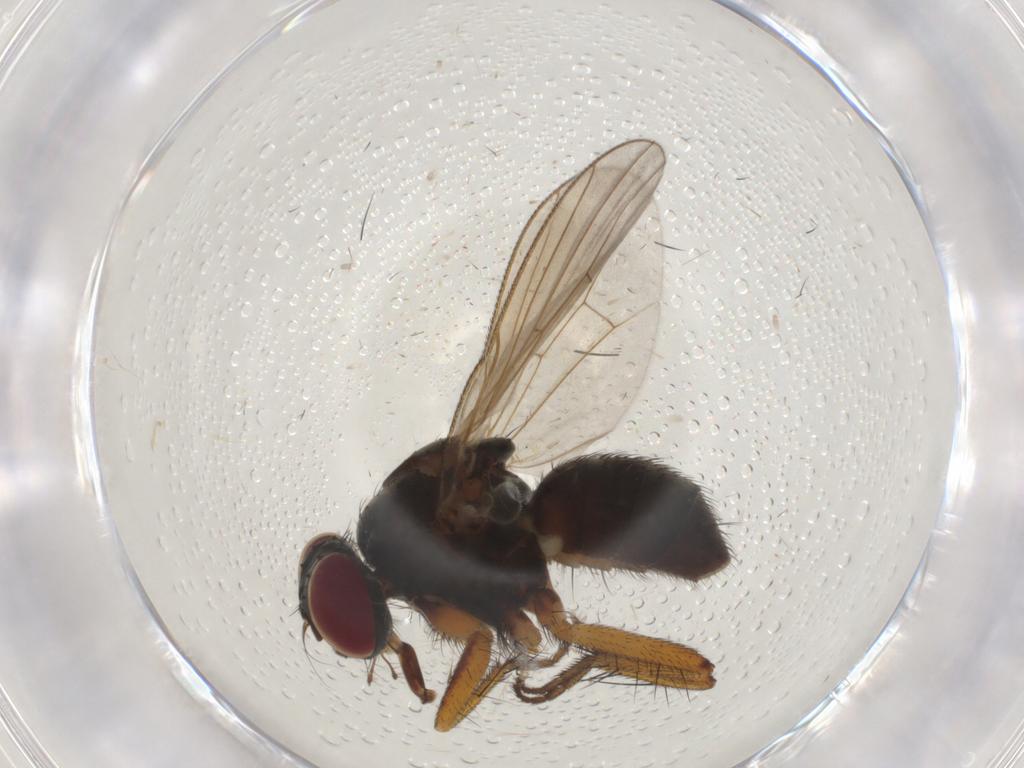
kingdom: Animalia
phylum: Arthropoda
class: Insecta
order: Diptera
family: Muscidae
